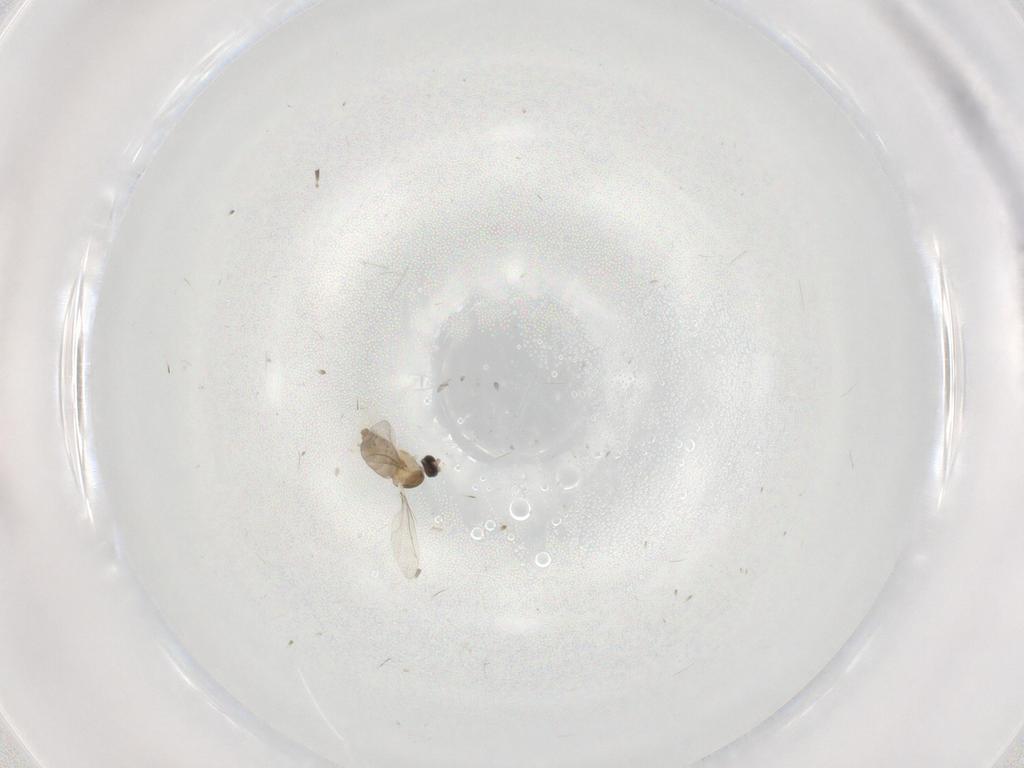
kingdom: Animalia
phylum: Arthropoda
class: Insecta
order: Diptera
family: Cecidomyiidae
